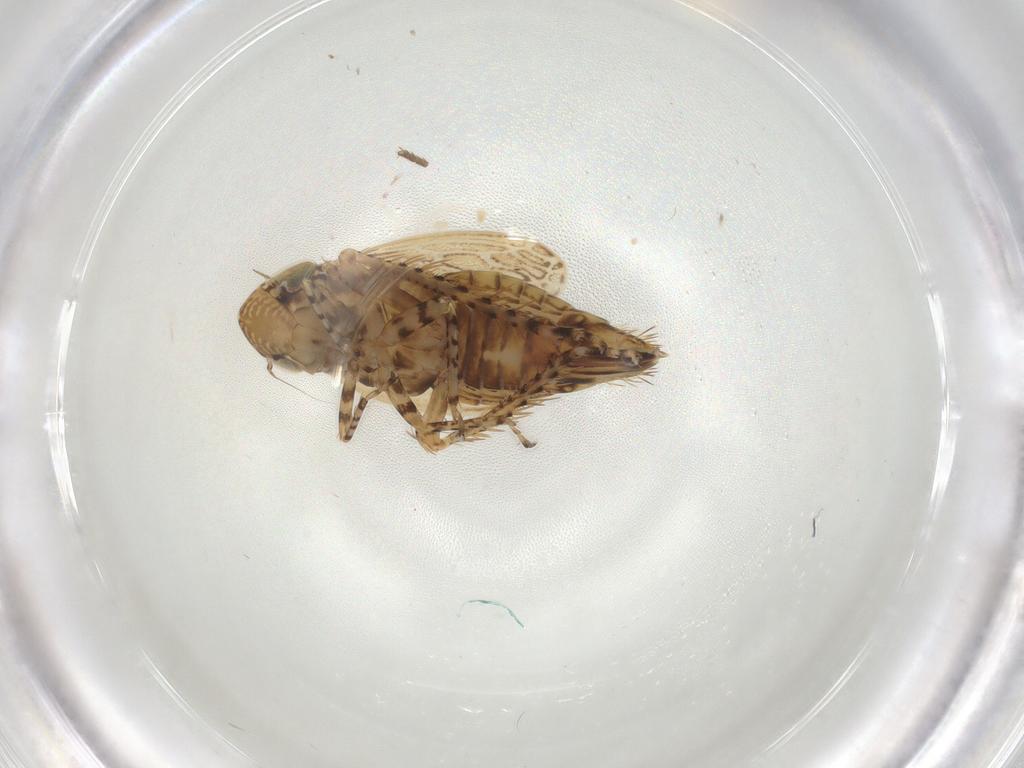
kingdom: Animalia
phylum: Arthropoda
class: Insecta
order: Hemiptera
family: Cicadellidae
